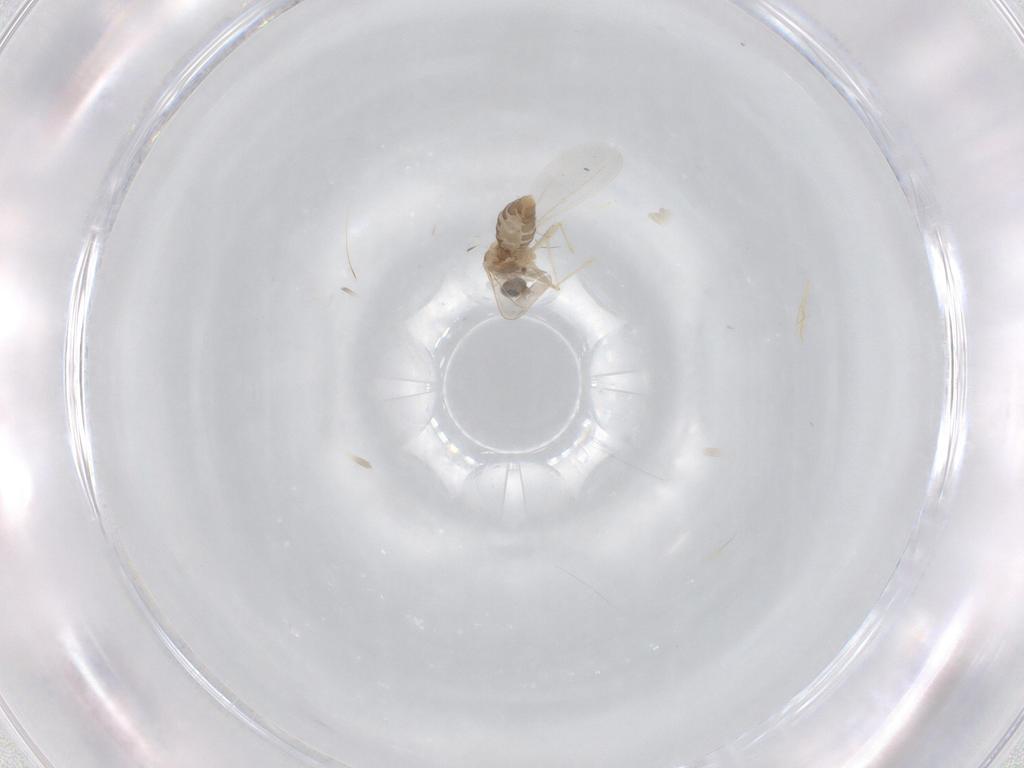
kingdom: Animalia
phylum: Arthropoda
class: Insecta
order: Diptera
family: Cecidomyiidae
